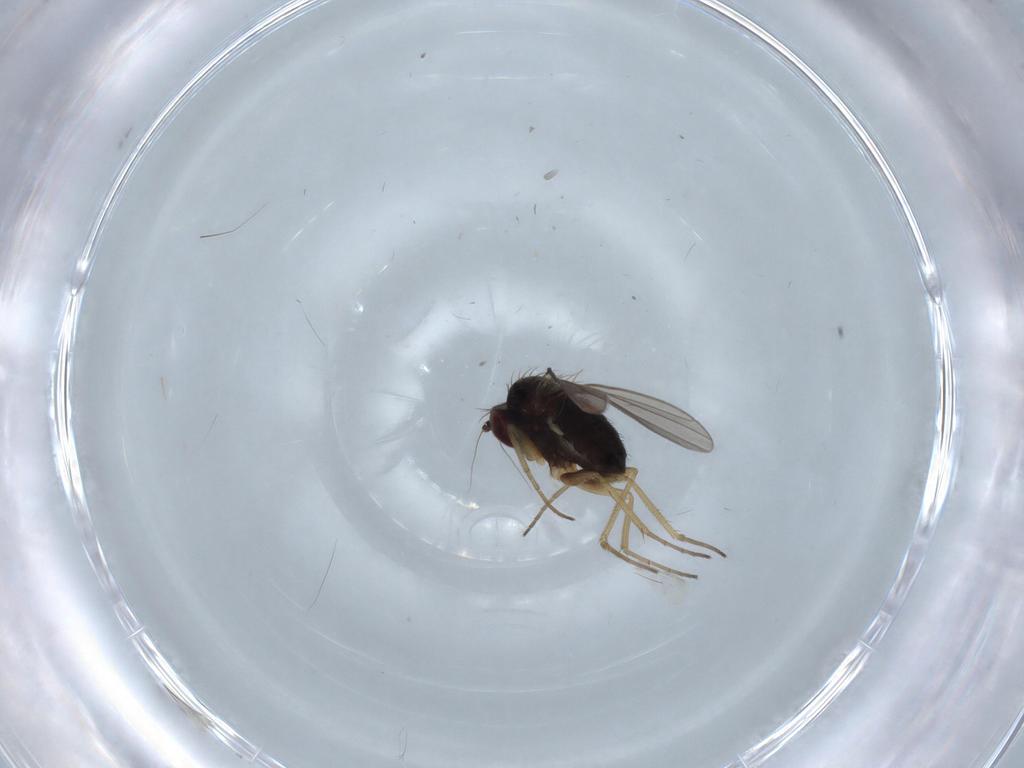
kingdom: Animalia
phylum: Arthropoda
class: Insecta
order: Diptera
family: Dolichopodidae
